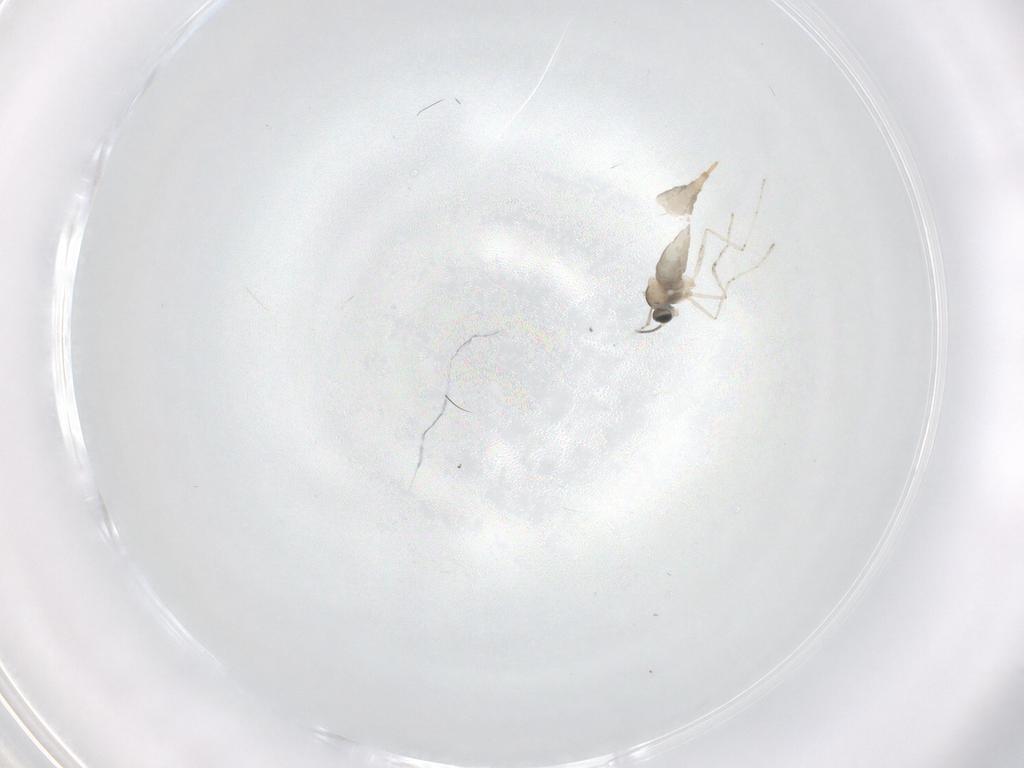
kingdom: Animalia
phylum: Arthropoda
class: Insecta
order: Diptera
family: Phoridae
